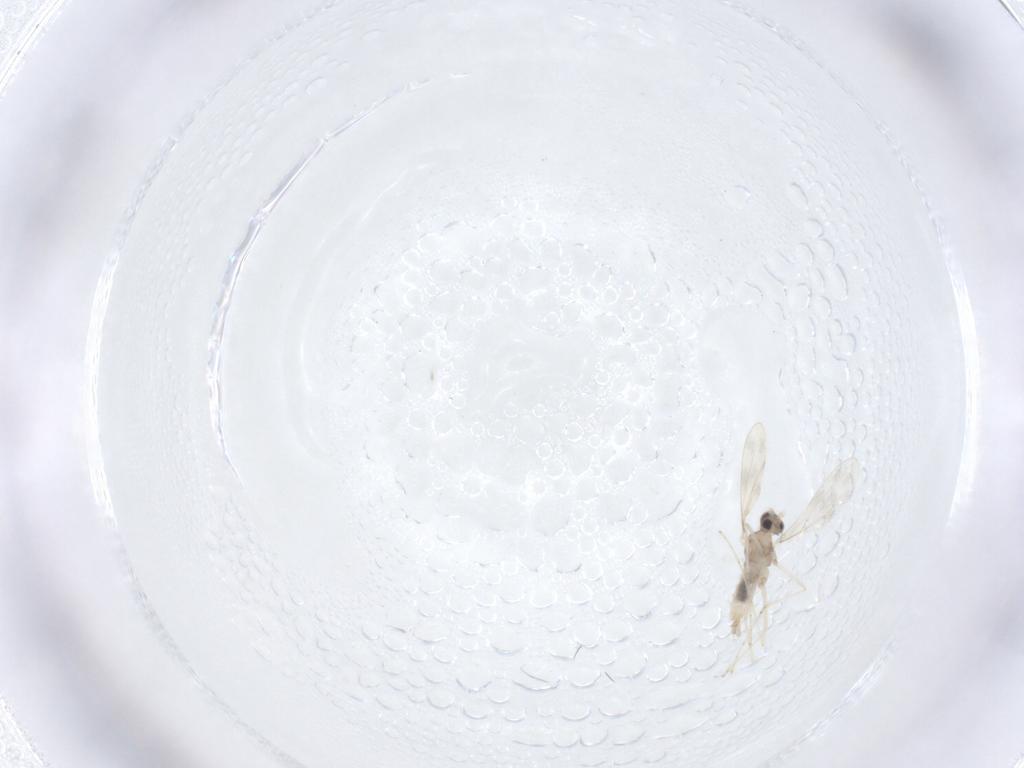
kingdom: Animalia
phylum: Arthropoda
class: Insecta
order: Diptera
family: Cecidomyiidae
